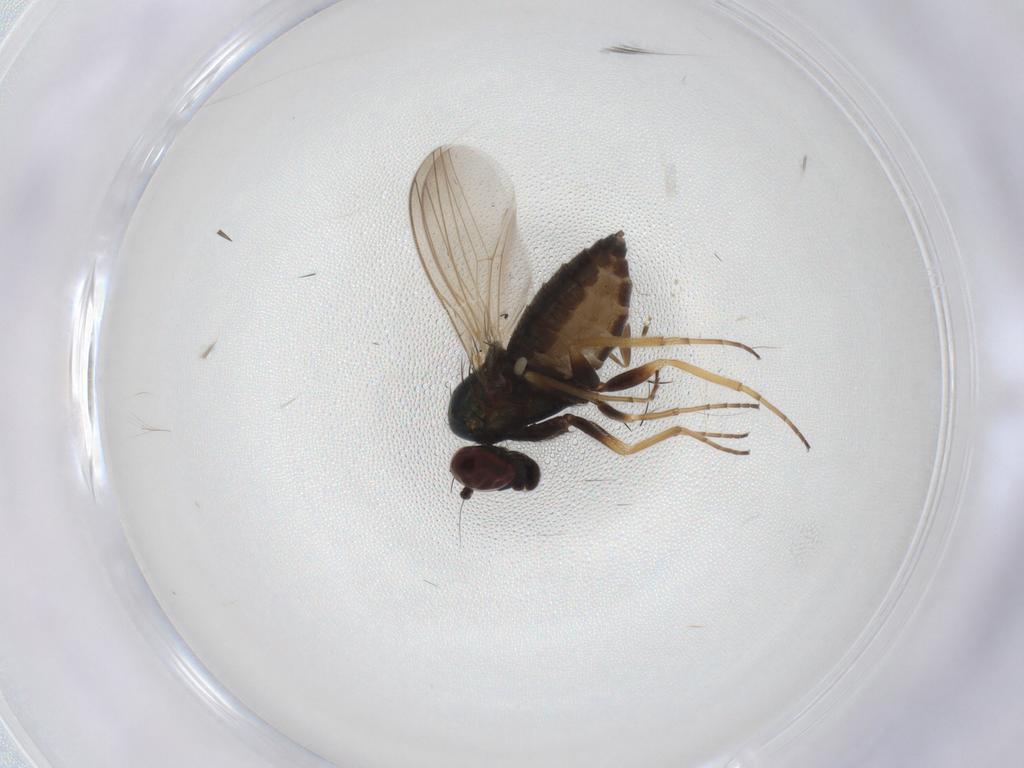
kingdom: Animalia
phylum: Arthropoda
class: Insecta
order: Diptera
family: Dolichopodidae
